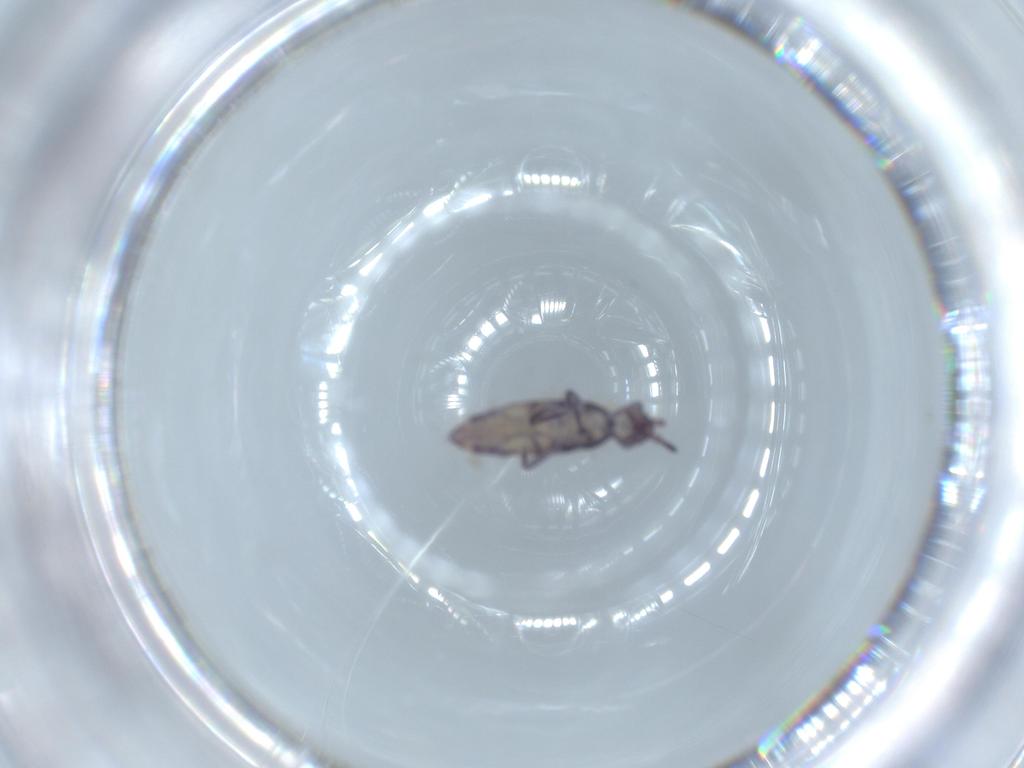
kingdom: Animalia
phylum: Arthropoda
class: Collembola
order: Entomobryomorpha
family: Entomobryidae
